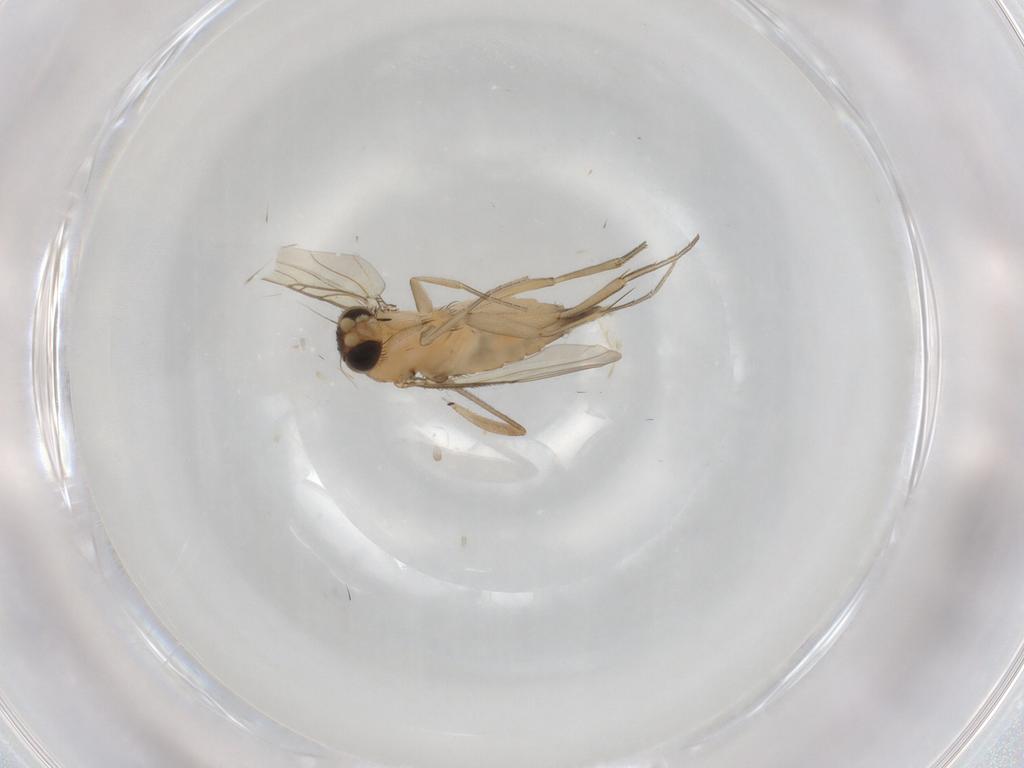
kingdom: Animalia
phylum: Arthropoda
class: Insecta
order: Diptera
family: Phoridae
